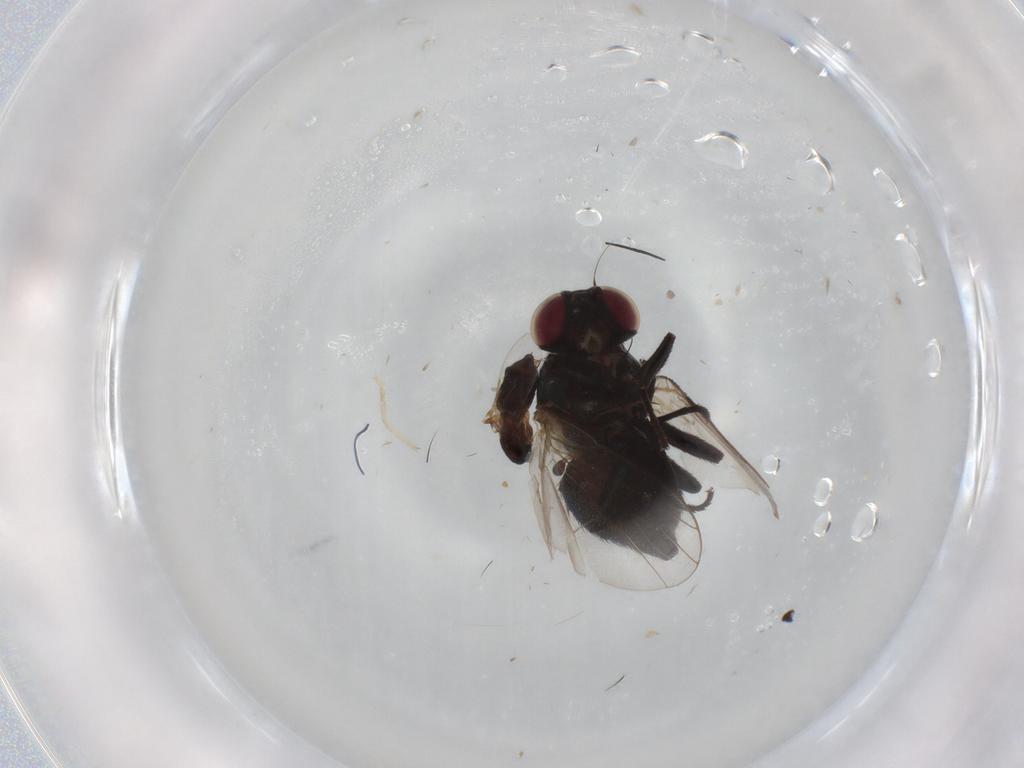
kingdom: Animalia
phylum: Arthropoda
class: Insecta
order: Diptera
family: Scatopsidae
